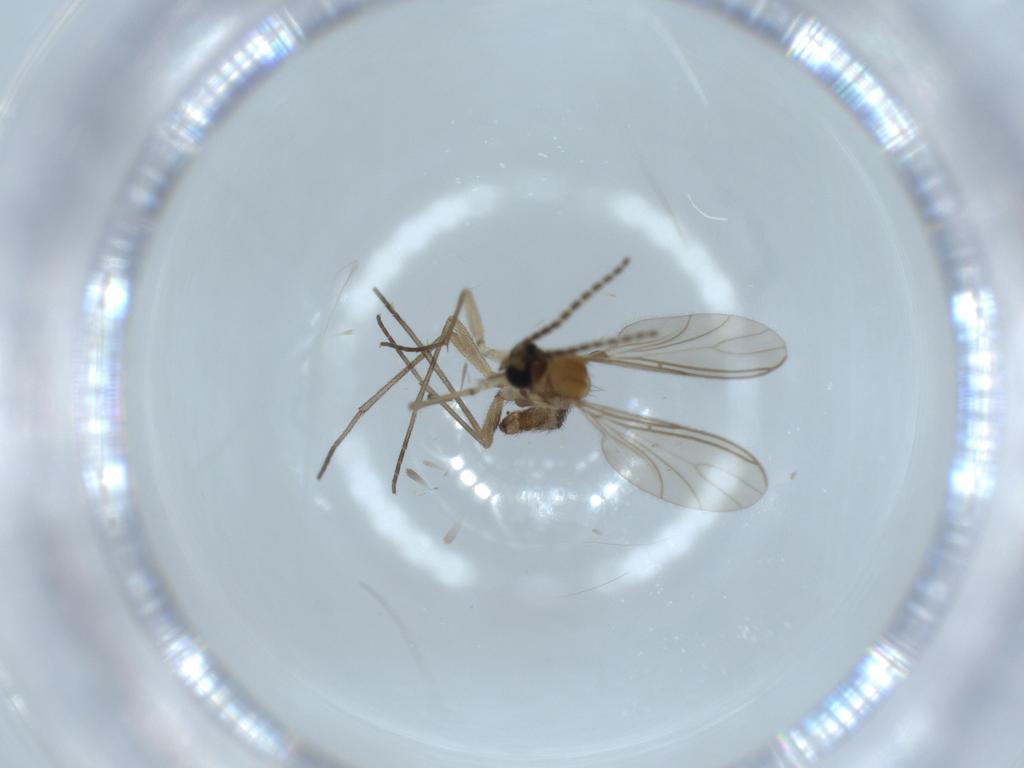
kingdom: Animalia
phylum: Arthropoda
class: Insecta
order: Diptera
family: Sciaridae
